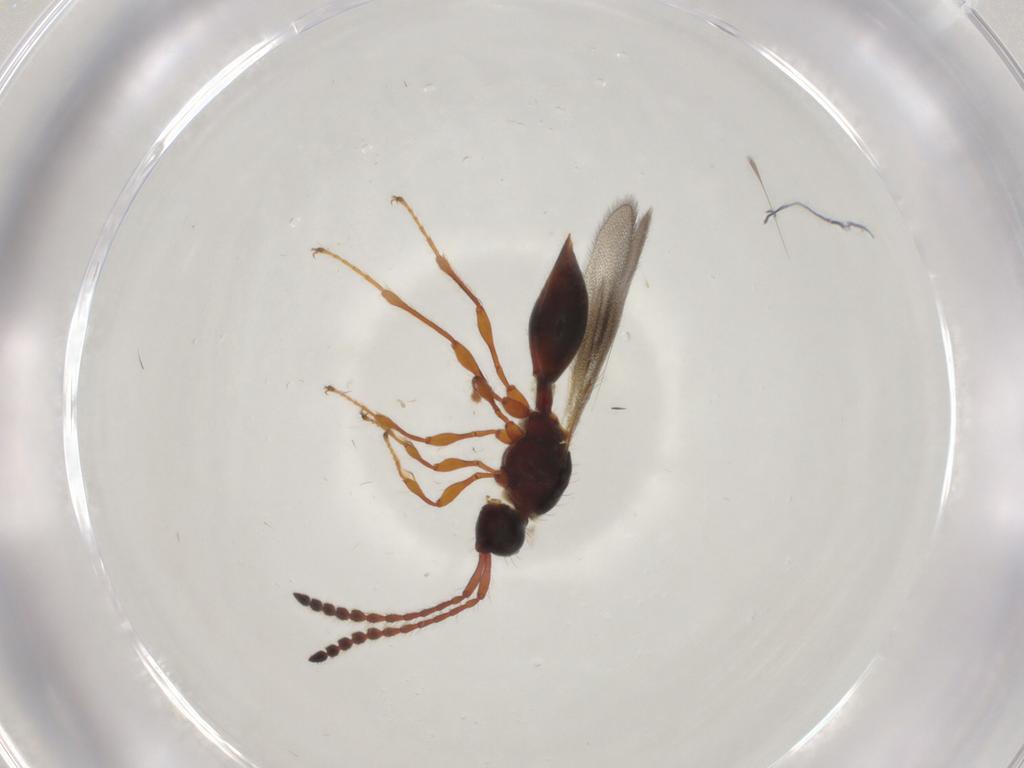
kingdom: Animalia
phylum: Arthropoda
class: Insecta
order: Hymenoptera
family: Diapriidae
